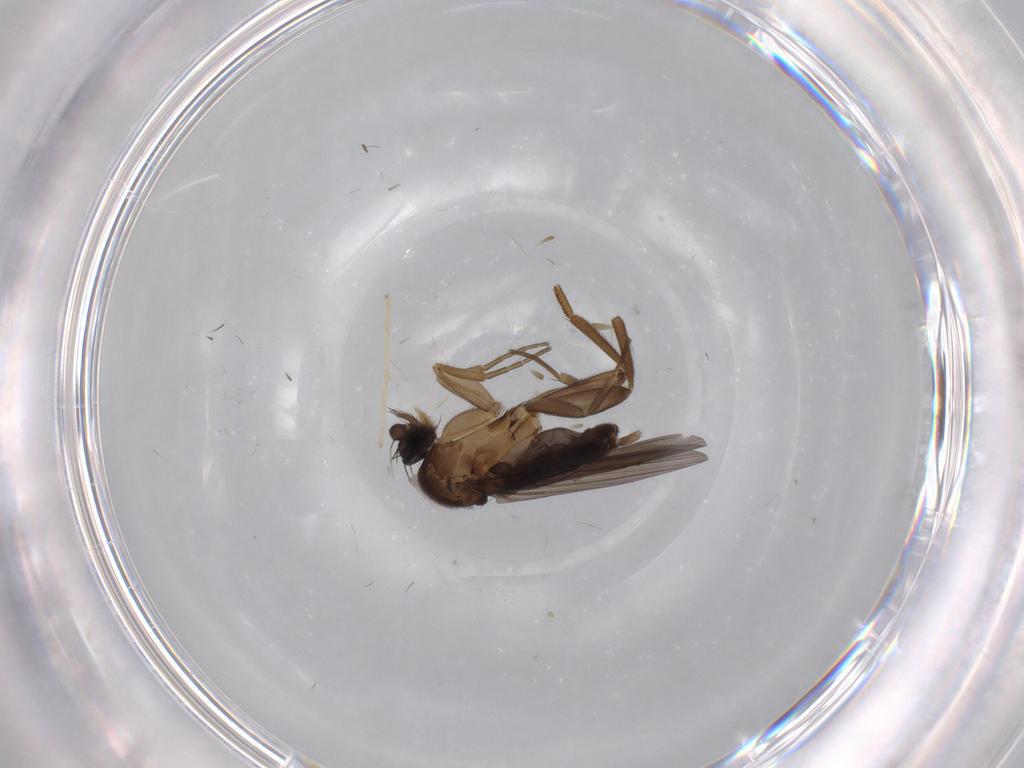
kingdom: Animalia
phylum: Arthropoda
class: Insecta
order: Diptera
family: Chironomidae
